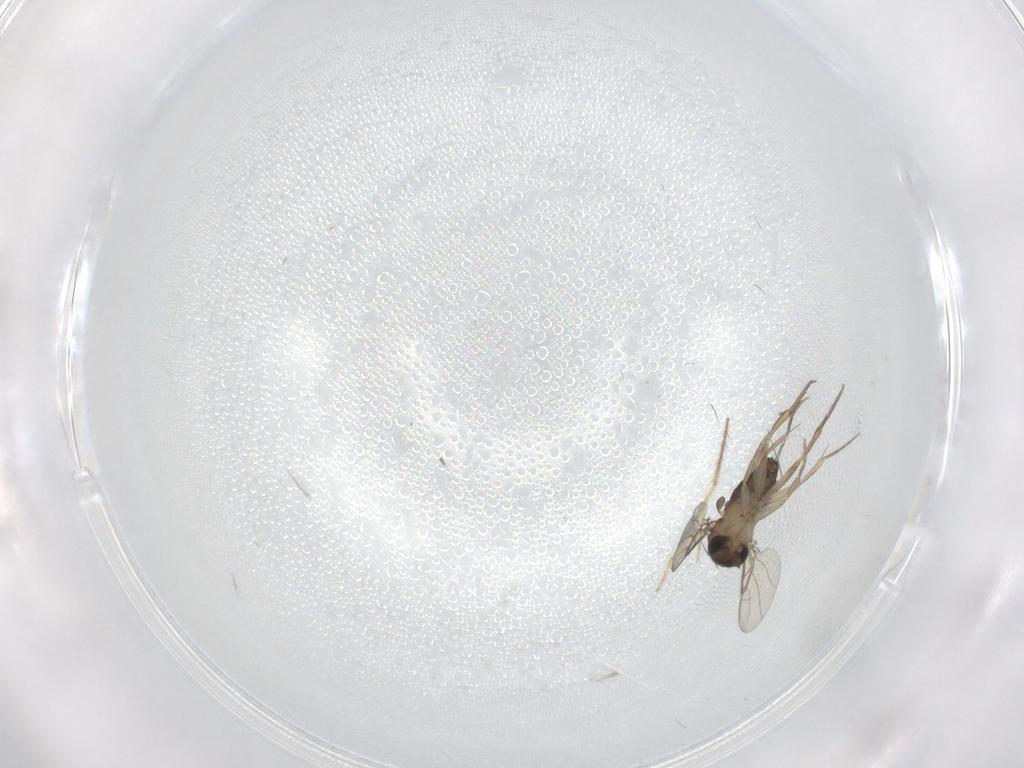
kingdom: Animalia
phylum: Arthropoda
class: Insecta
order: Diptera
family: Phoridae
